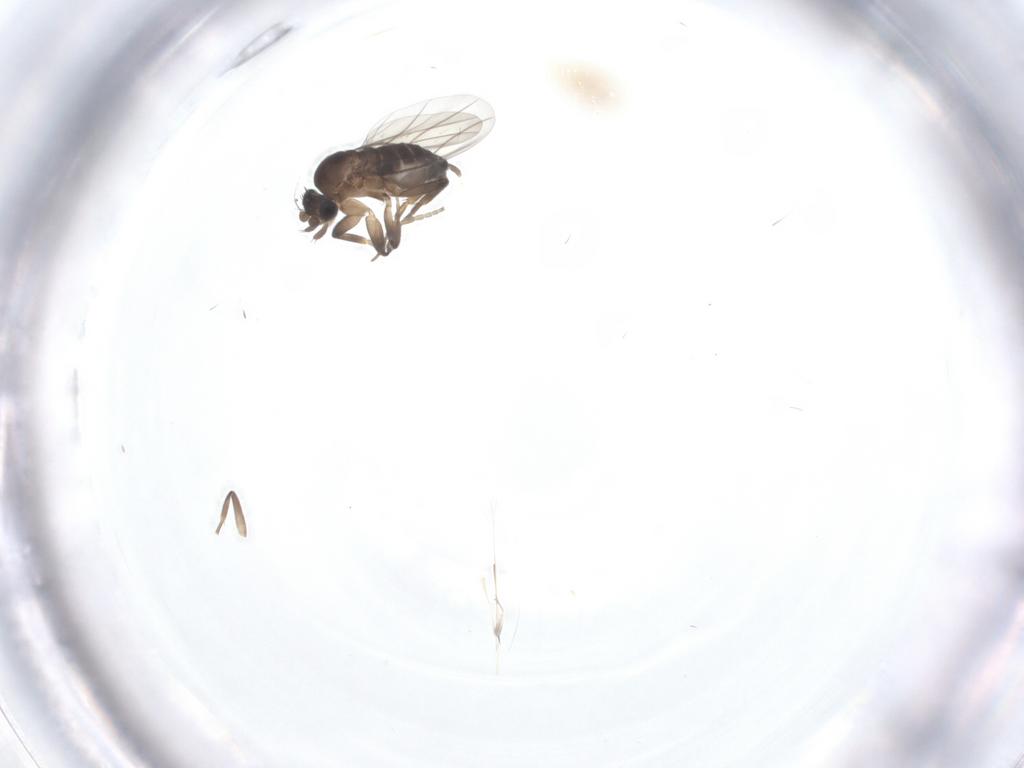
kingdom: Animalia
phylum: Arthropoda
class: Insecta
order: Diptera
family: Phoridae
